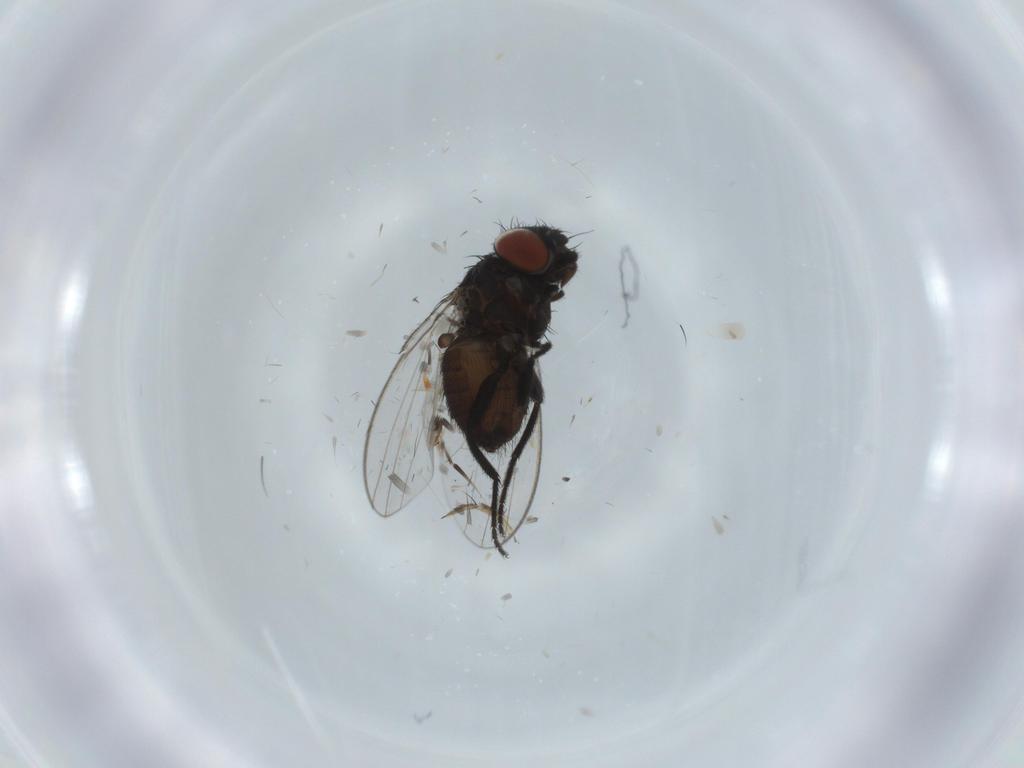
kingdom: Animalia
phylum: Arthropoda
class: Insecta
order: Diptera
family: Milichiidae
